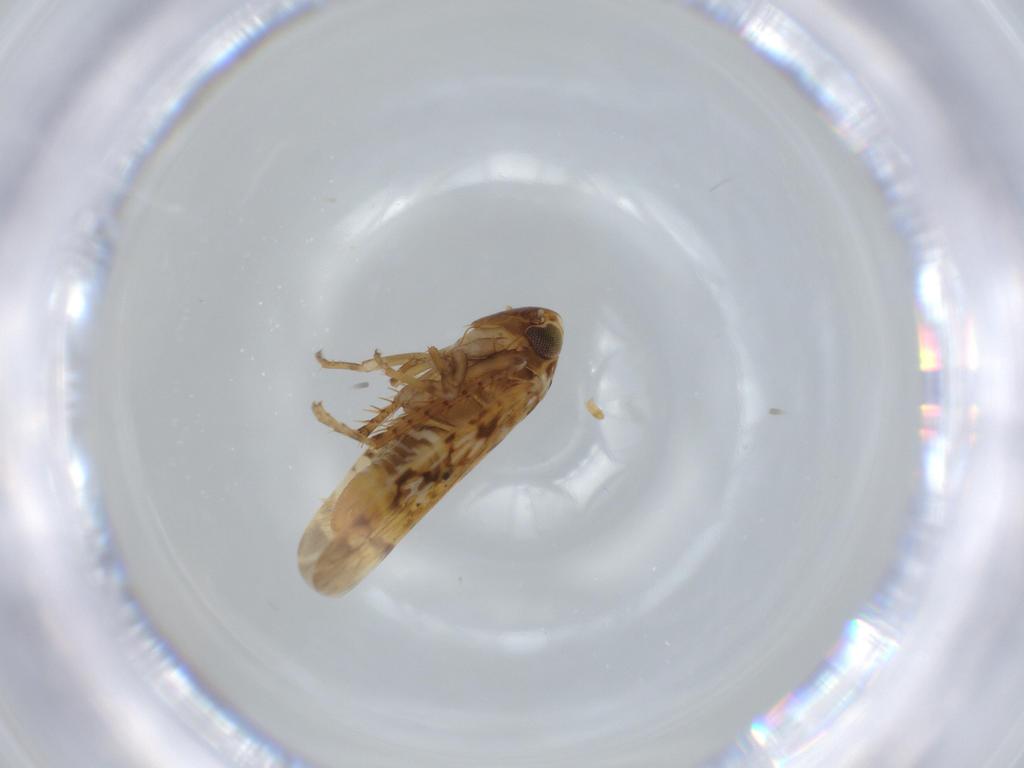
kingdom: Animalia
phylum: Arthropoda
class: Insecta
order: Hemiptera
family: Cicadellidae
